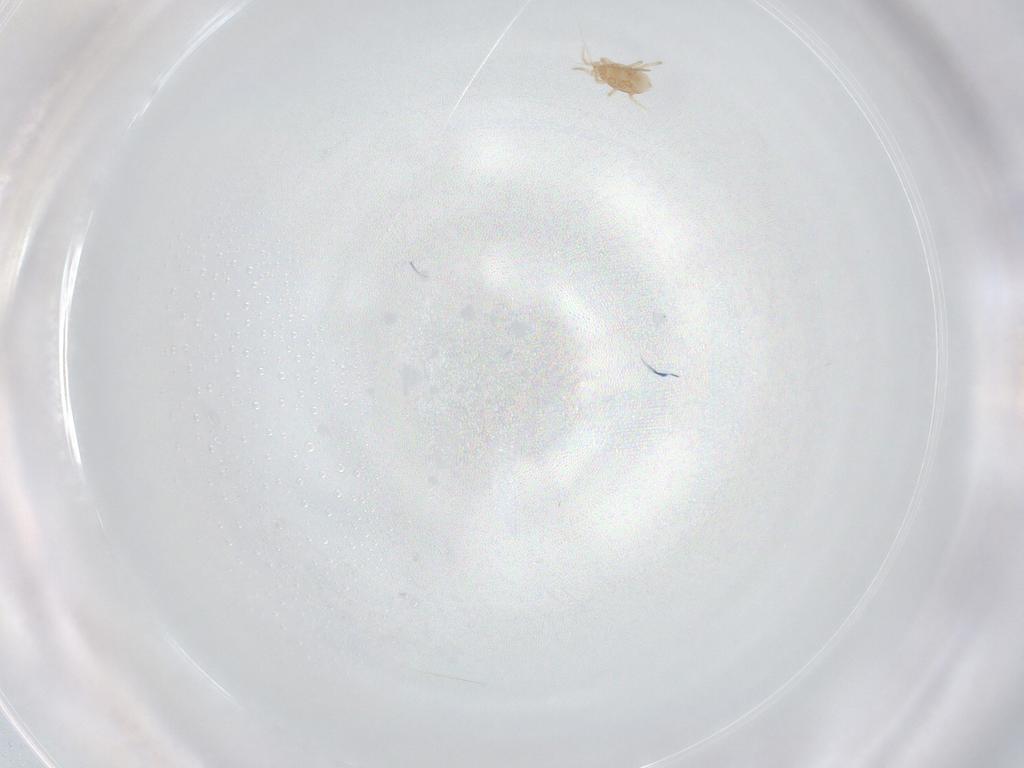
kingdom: Animalia
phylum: Arthropoda
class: Arachnida
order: Mesostigmata
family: Melicharidae
